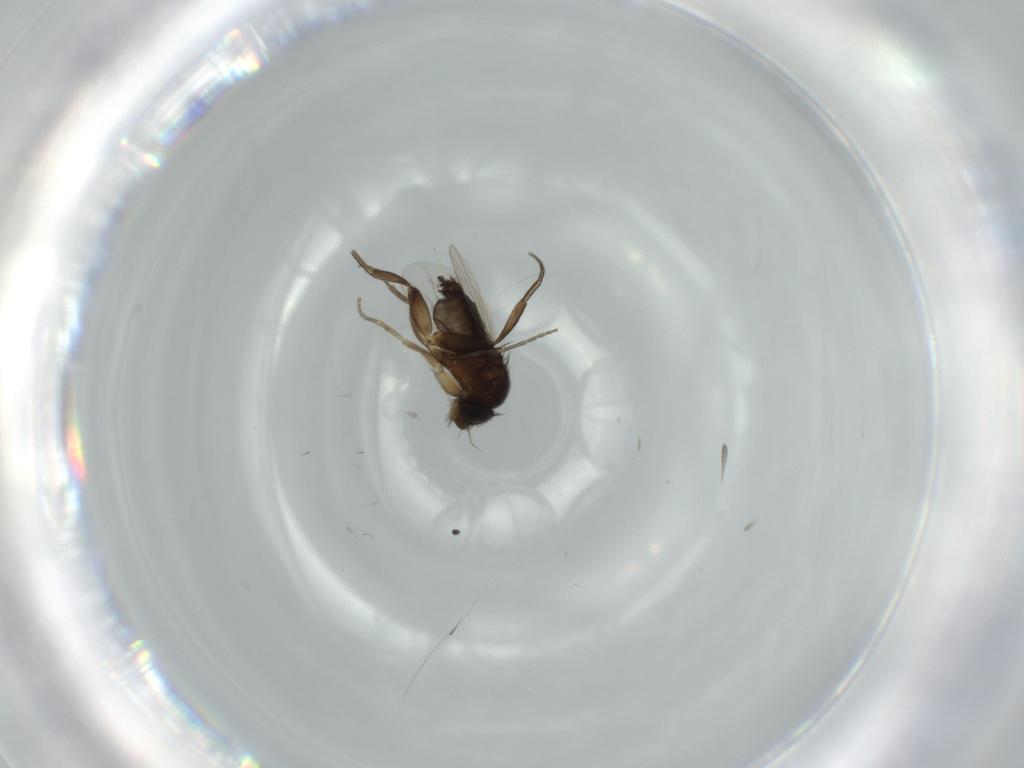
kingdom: Animalia
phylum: Arthropoda
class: Insecta
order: Diptera
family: Phoridae
